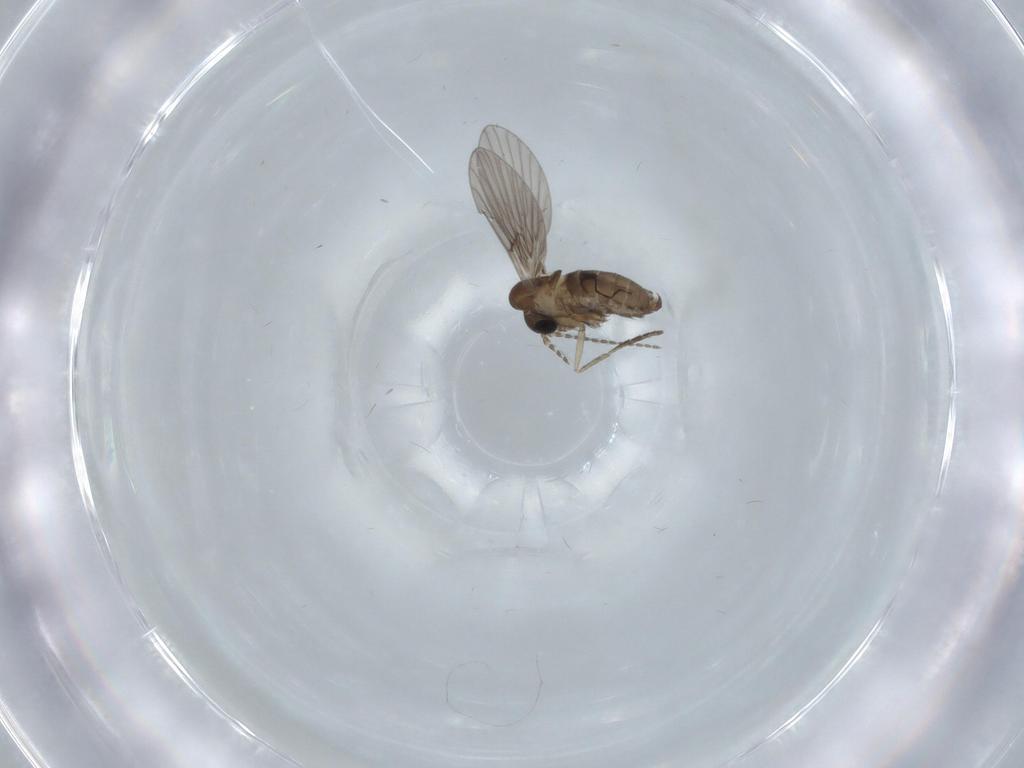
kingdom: Animalia
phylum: Arthropoda
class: Insecta
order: Diptera
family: Psychodidae
